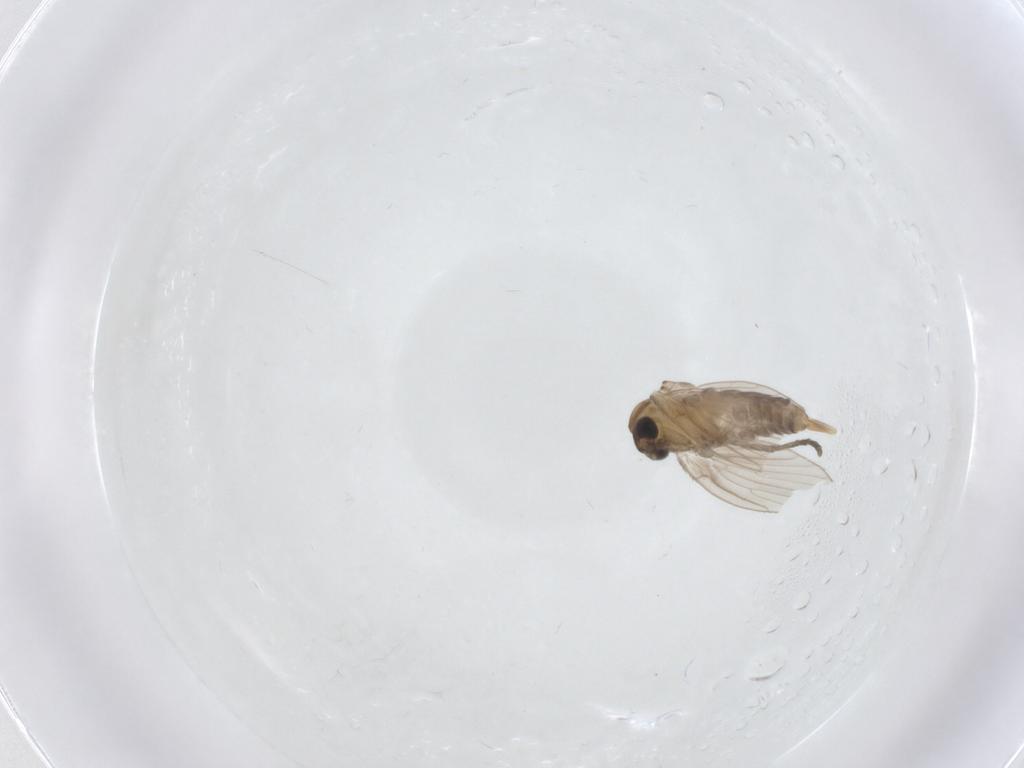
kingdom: Animalia
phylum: Arthropoda
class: Insecta
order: Diptera
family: Psychodidae
